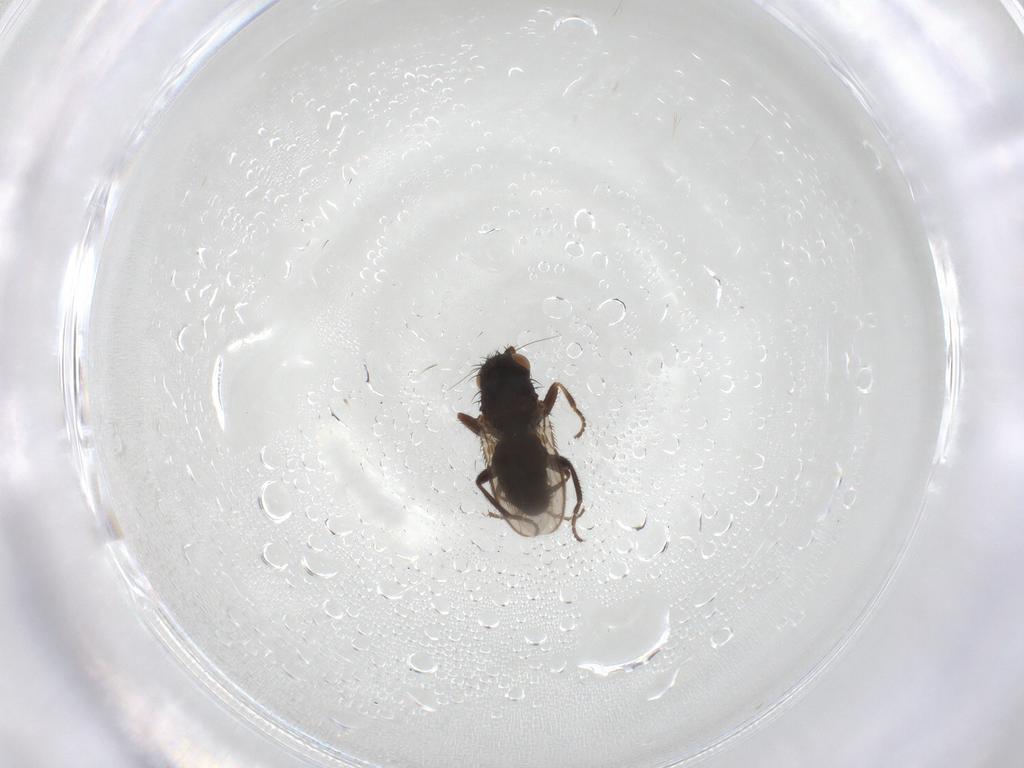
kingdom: Animalia
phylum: Arthropoda
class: Insecta
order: Diptera
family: Sphaeroceridae
